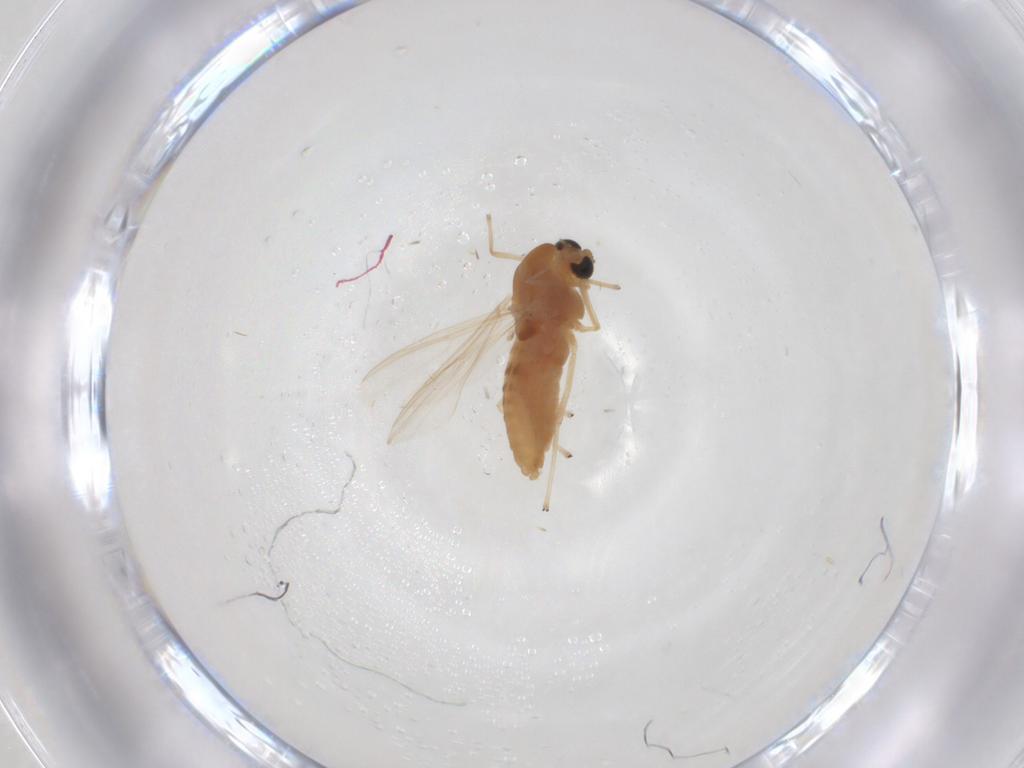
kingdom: Animalia
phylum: Arthropoda
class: Insecta
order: Diptera
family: Chironomidae
